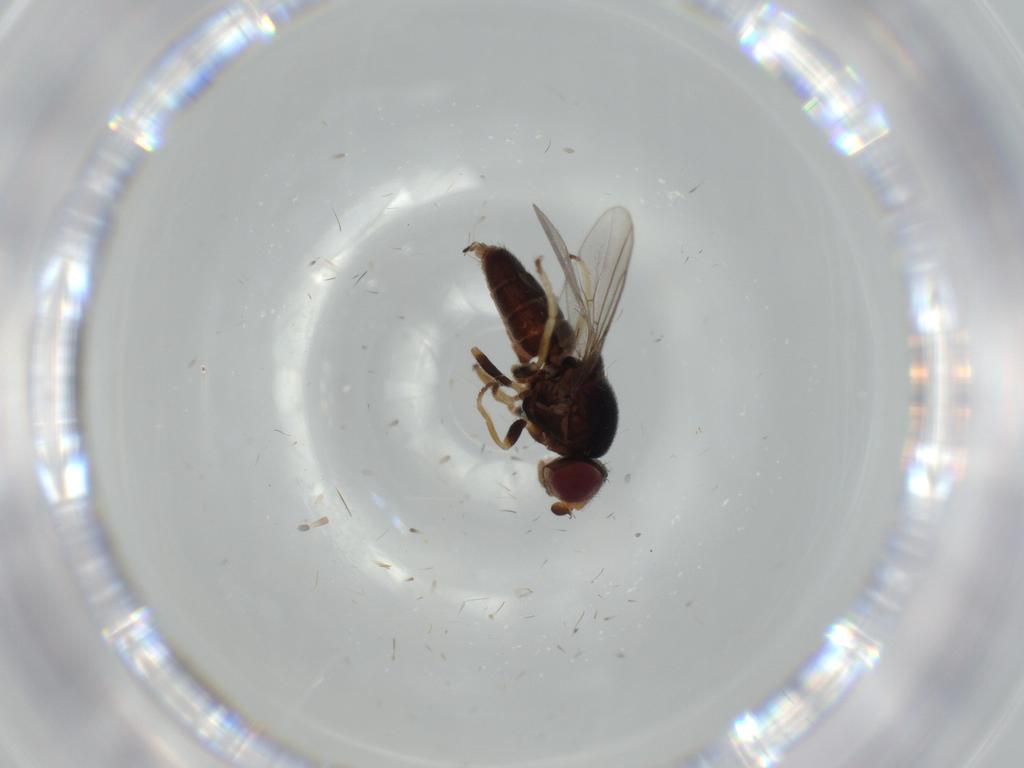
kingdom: Animalia
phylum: Arthropoda
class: Insecta
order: Diptera
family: Chloropidae
